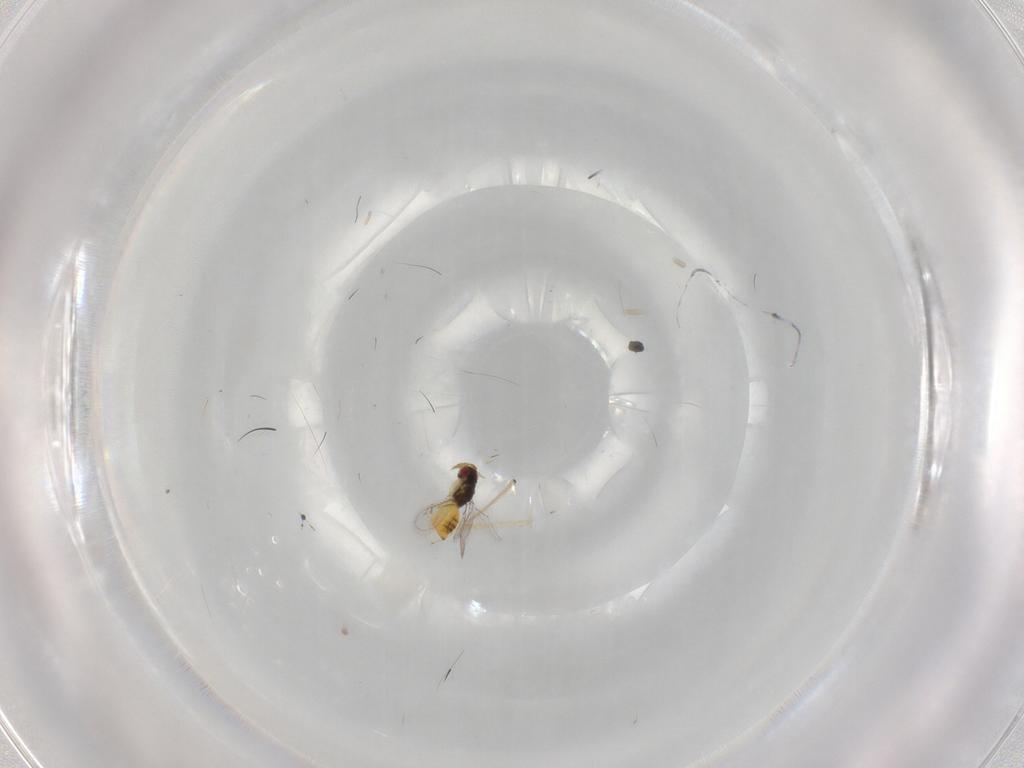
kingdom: Animalia
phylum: Arthropoda
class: Insecta
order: Hymenoptera
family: Eulophidae
